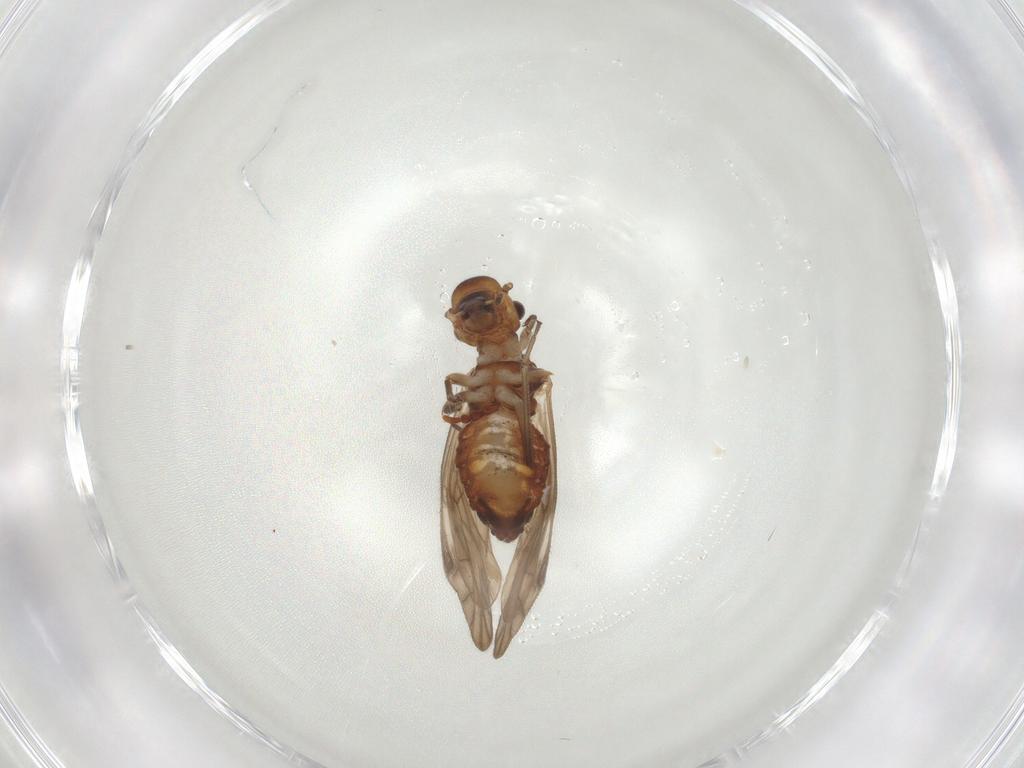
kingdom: Animalia
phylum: Arthropoda
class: Insecta
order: Psocodea
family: Philotarsidae
